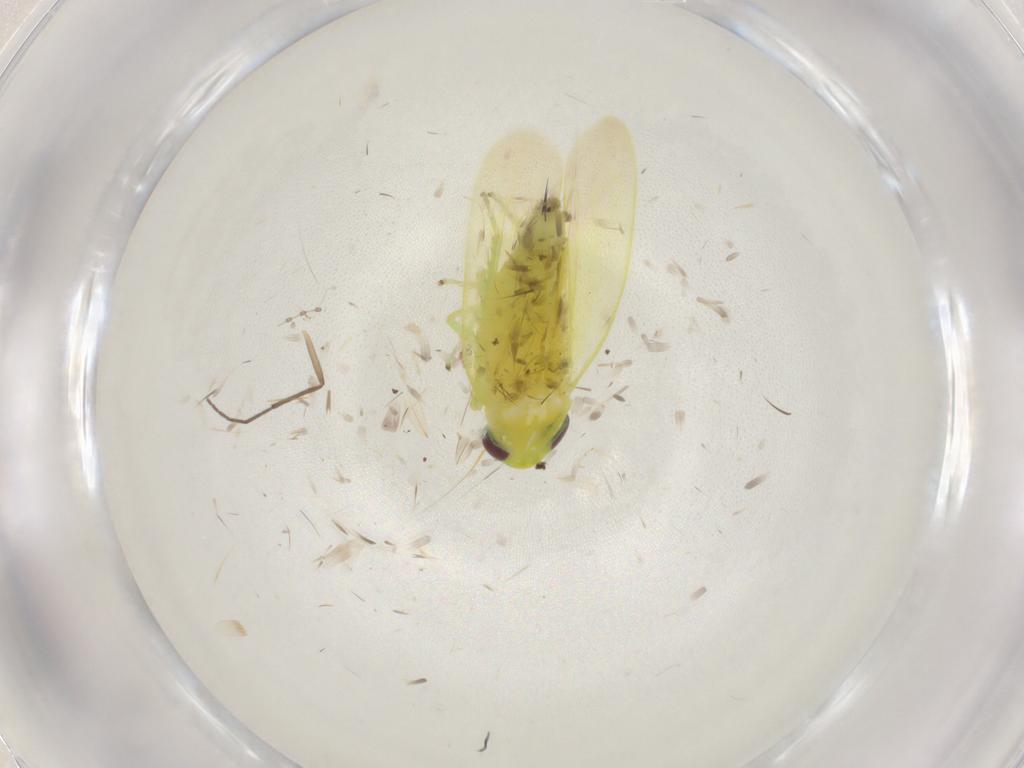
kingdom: Animalia
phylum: Arthropoda
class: Insecta
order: Hemiptera
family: Cicadellidae
